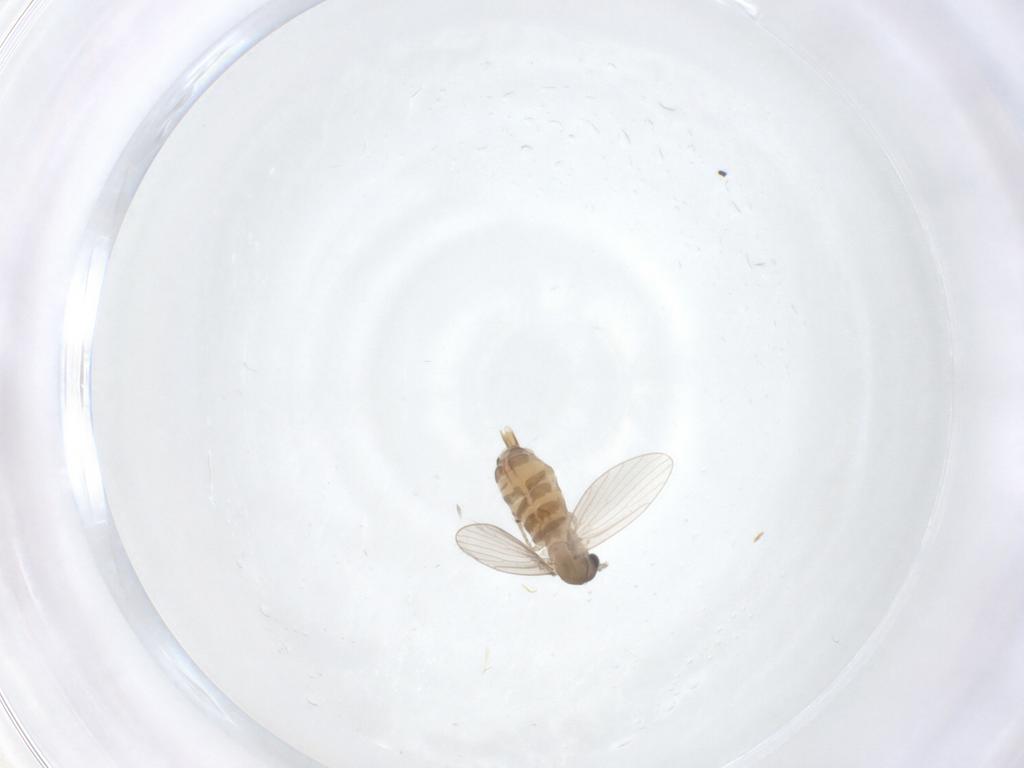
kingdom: Animalia
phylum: Arthropoda
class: Insecta
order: Diptera
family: Psychodidae
